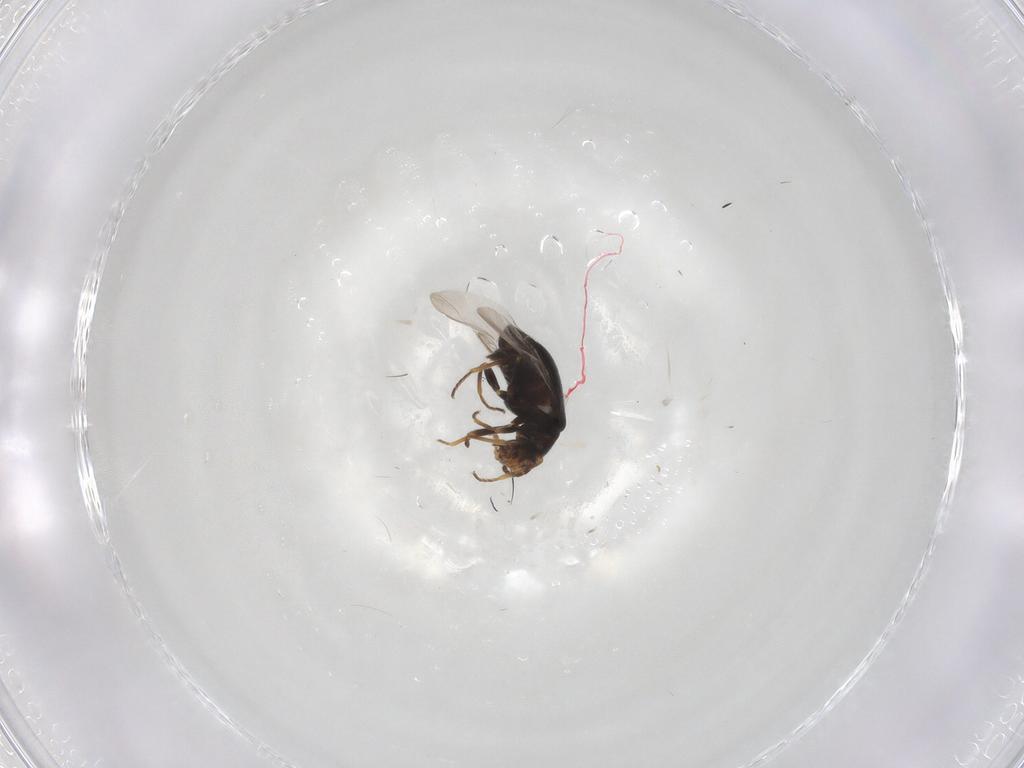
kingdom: Animalia
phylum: Arthropoda
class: Insecta
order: Coleoptera
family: Melyridae
